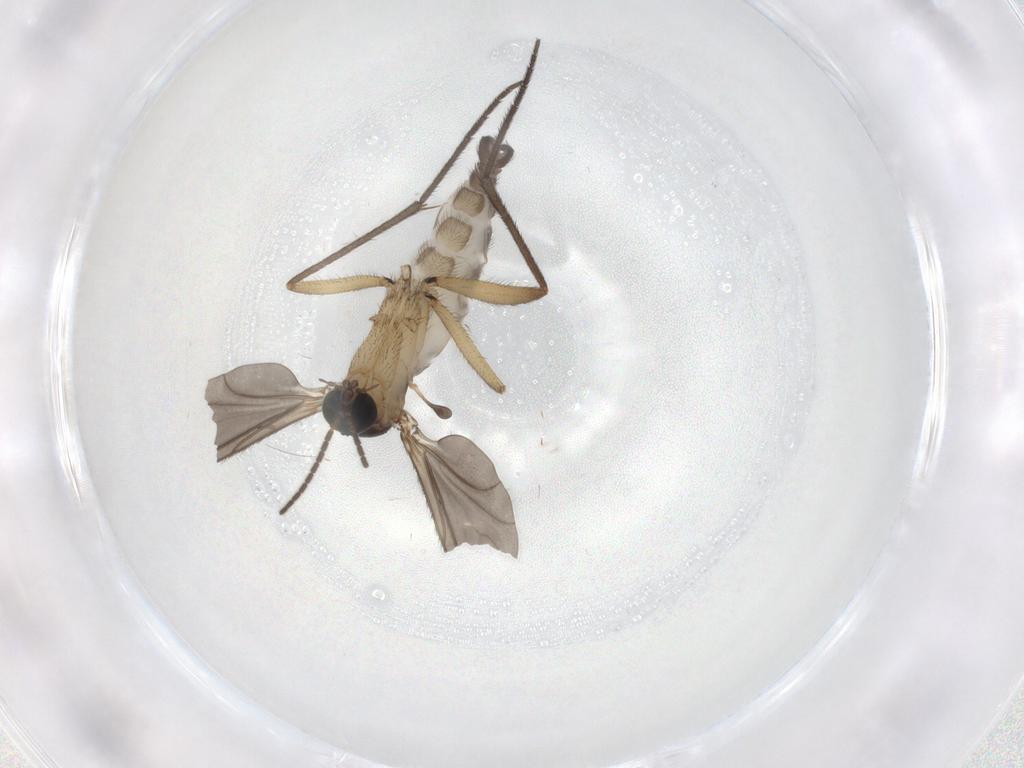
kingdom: Animalia
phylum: Arthropoda
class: Insecta
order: Diptera
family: Sciaridae
